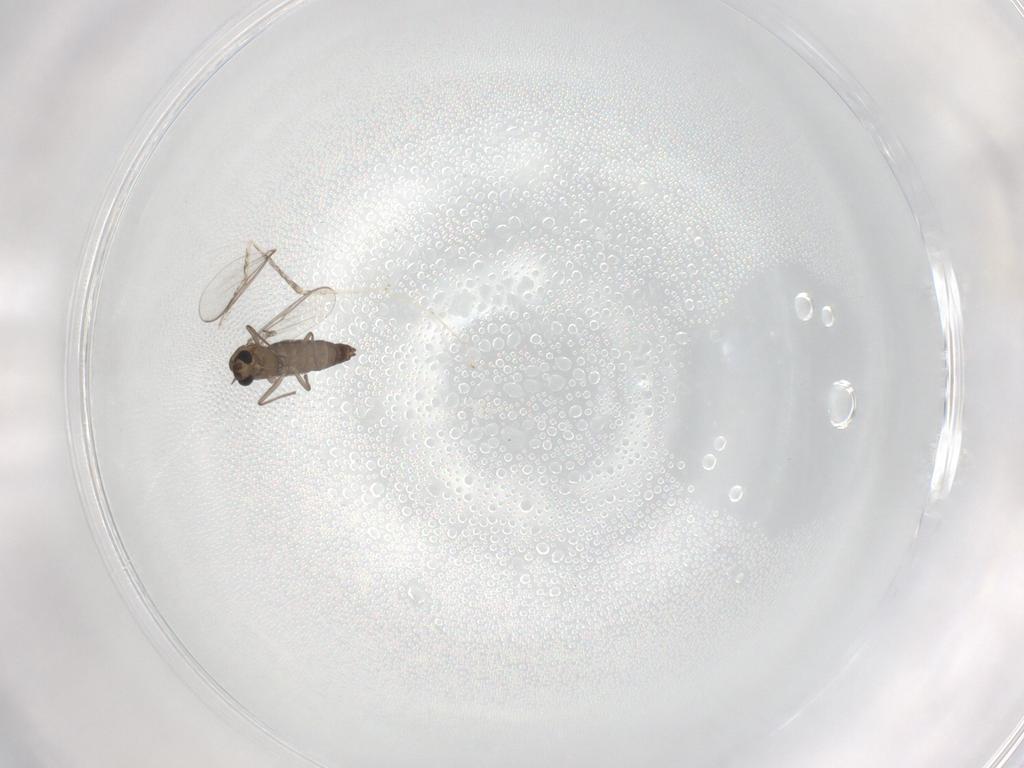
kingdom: Animalia
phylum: Arthropoda
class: Insecta
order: Diptera
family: Chironomidae
